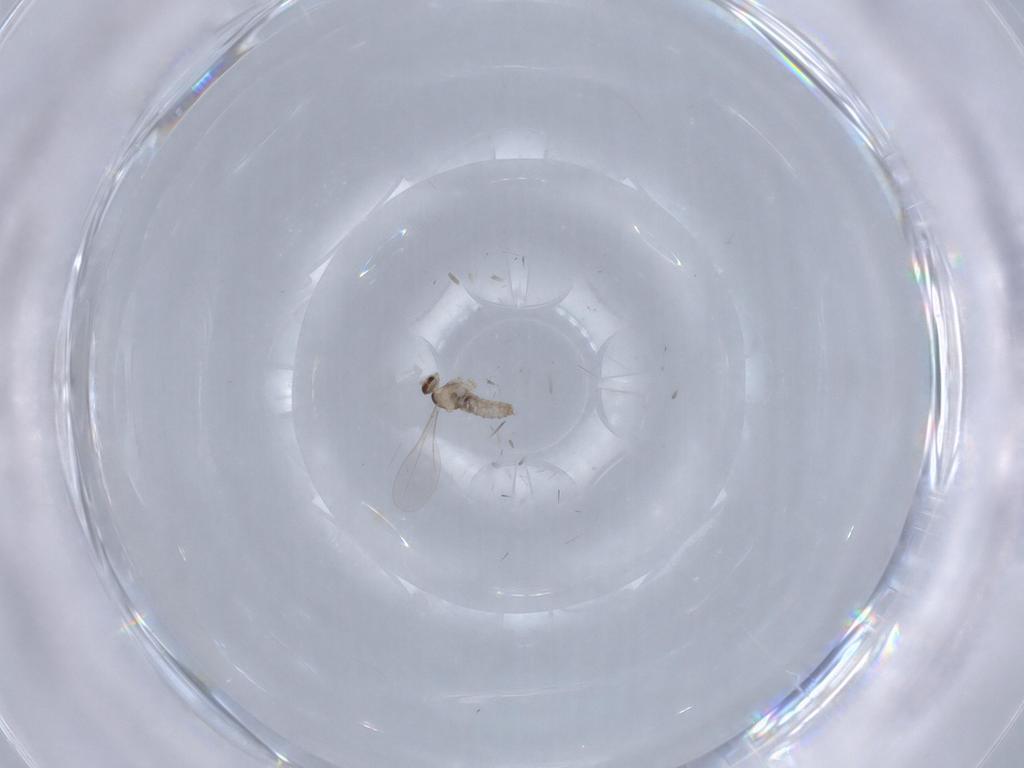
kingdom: Animalia
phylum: Arthropoda
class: Insecta
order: Diptera
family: Cecidomyiidae
